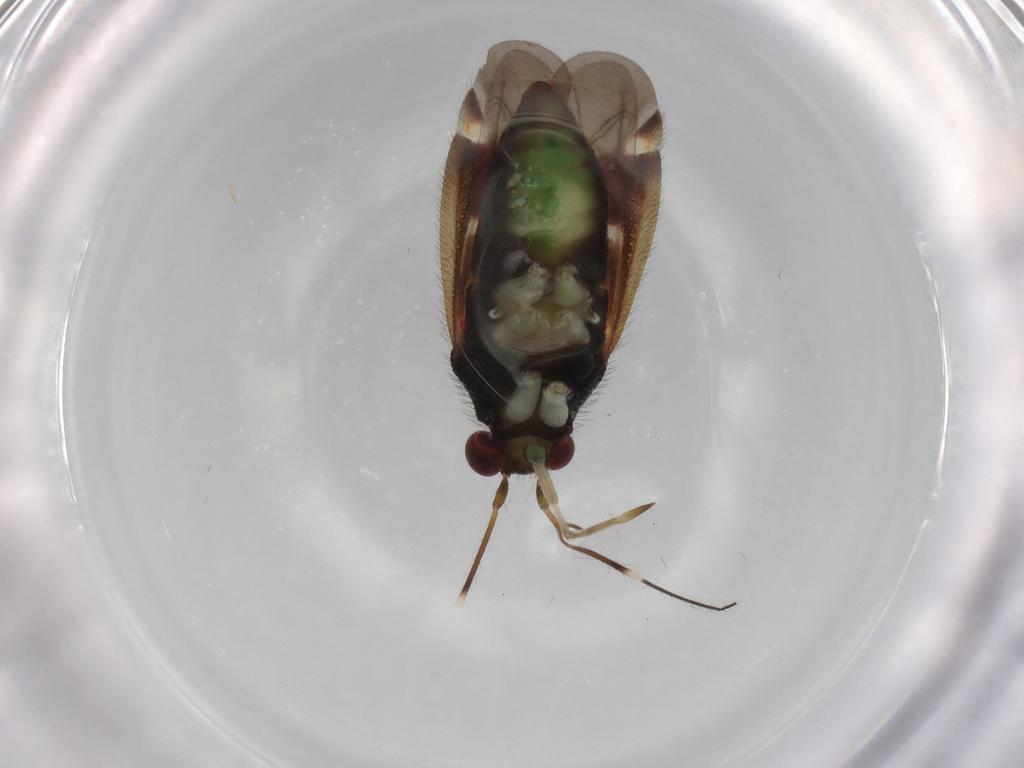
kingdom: Animalia
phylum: Arthropoda
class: Insecta
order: Hemiptera
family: Miridae
